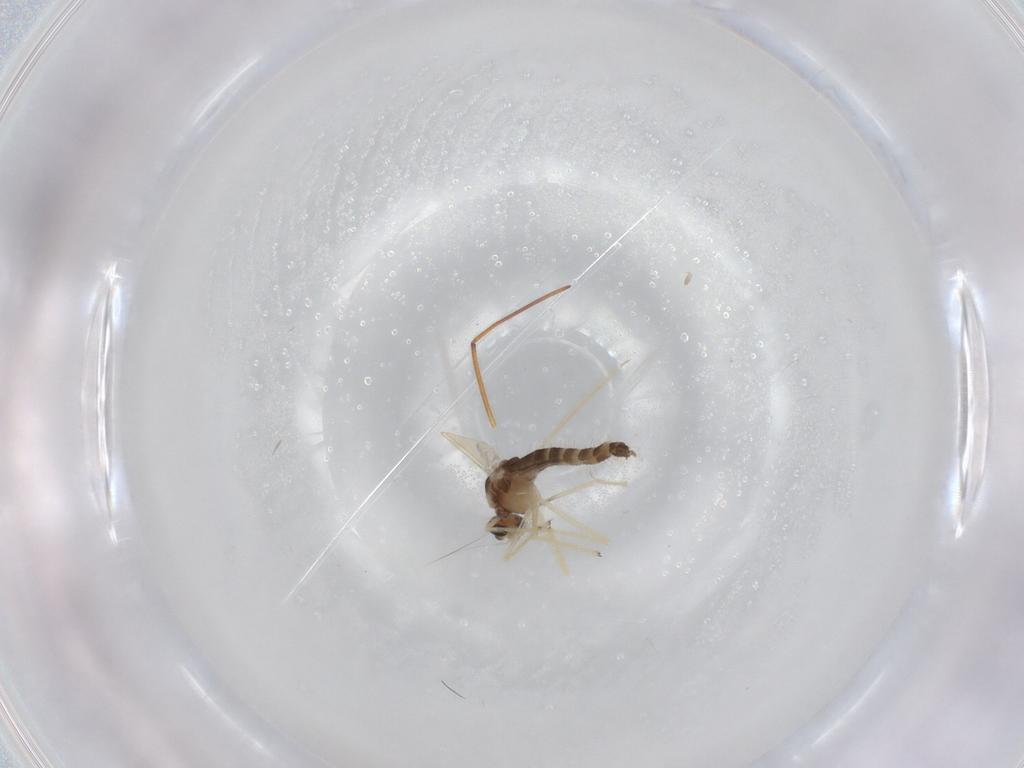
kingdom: Animalia
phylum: Arthropoda
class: Insecta
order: Diptera
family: Chironomidae
